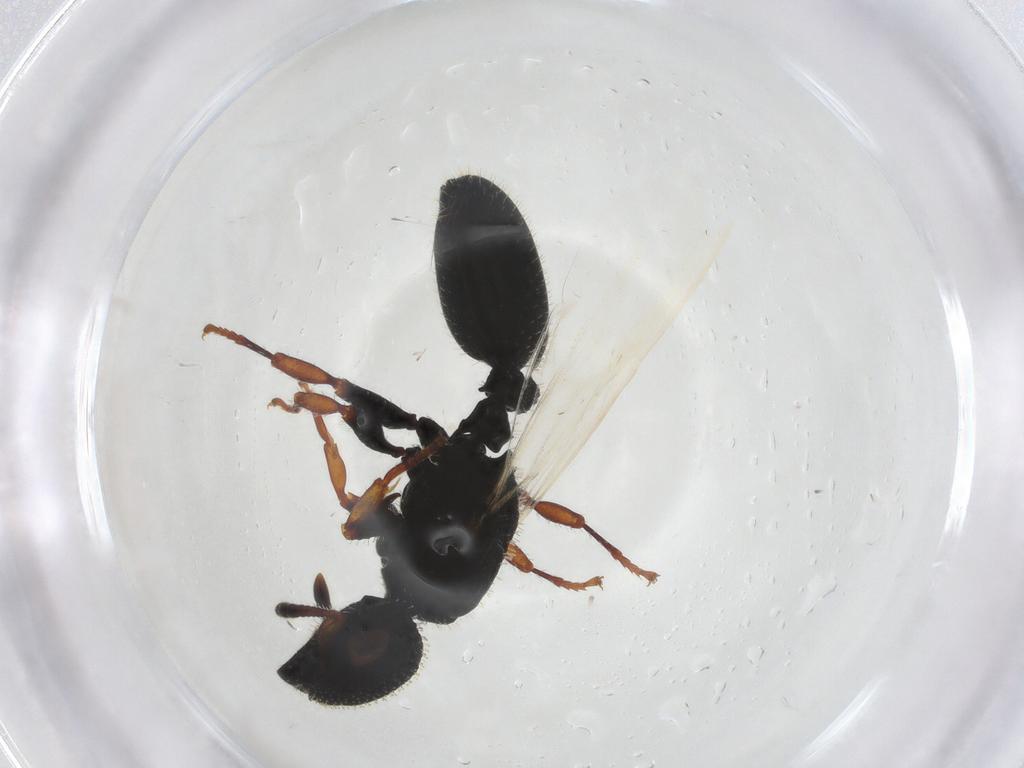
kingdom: Animalia
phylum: Arthropoda
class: Insecta
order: Hymenoptera
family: Formicidae
